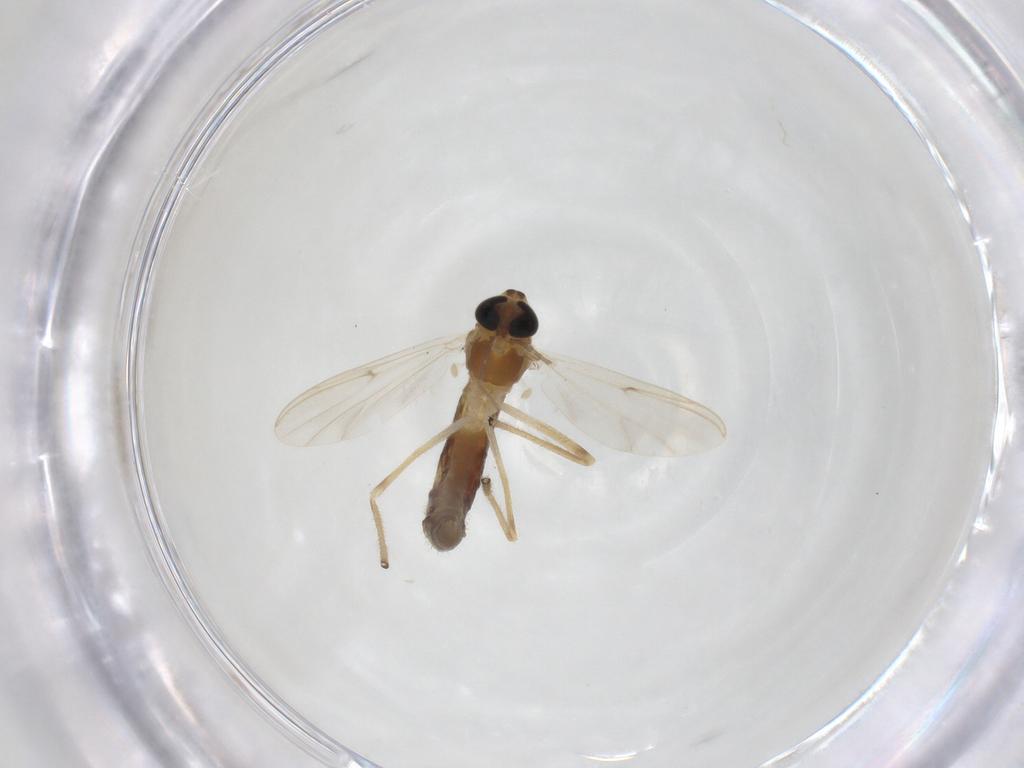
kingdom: Animalia
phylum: Arthropoda
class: Insecta
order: Diptera
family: Chironomidae
